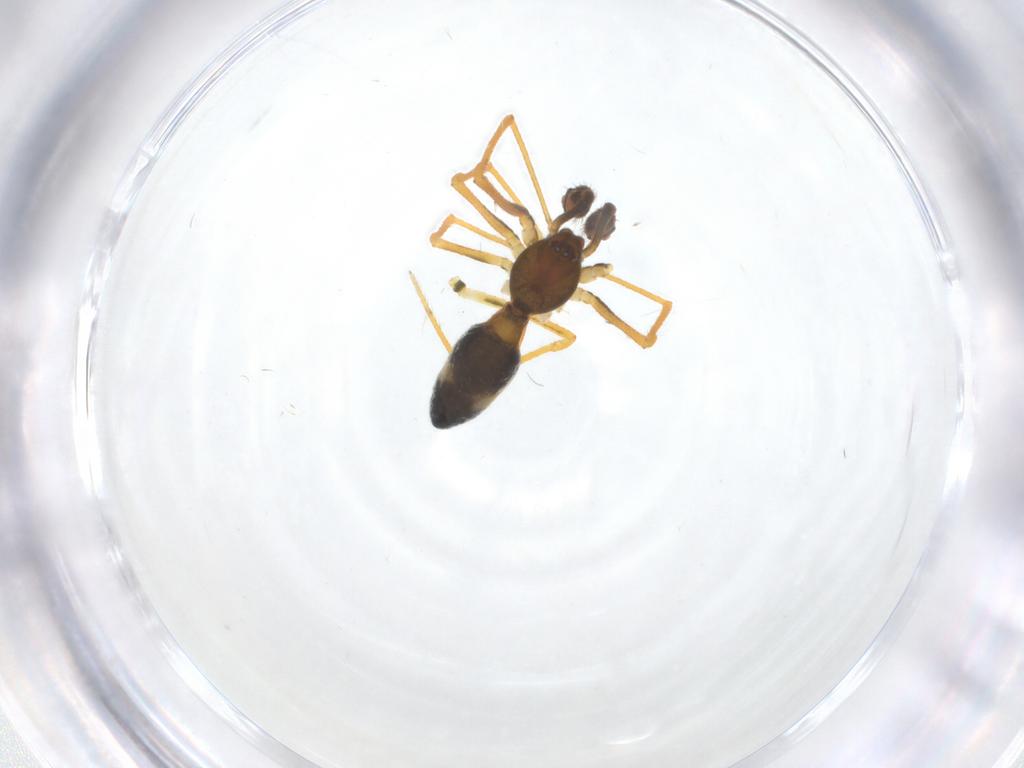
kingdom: Animalia
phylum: Arthropoda
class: Arachnida
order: Araneae
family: Theridiidae
